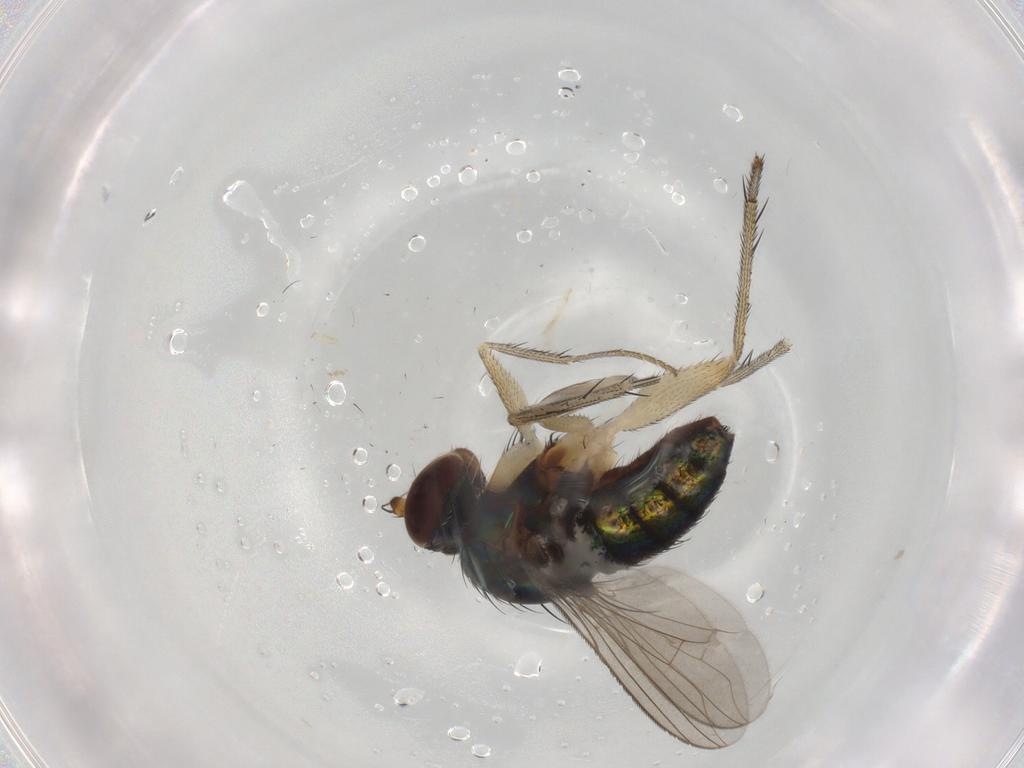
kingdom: Animalia
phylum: Arthropoda
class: Insecta
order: Diptera
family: Dolichopodidae
